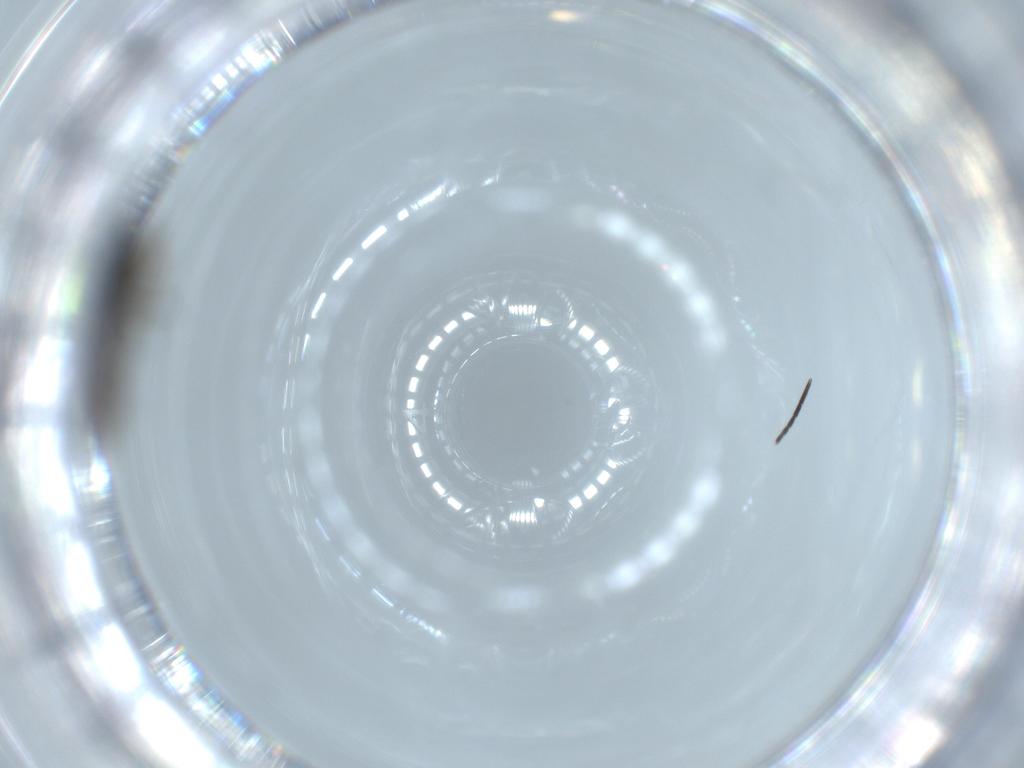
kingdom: Animalia
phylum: Arthropoda
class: Insecta
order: Diptera
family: Sciaridae
